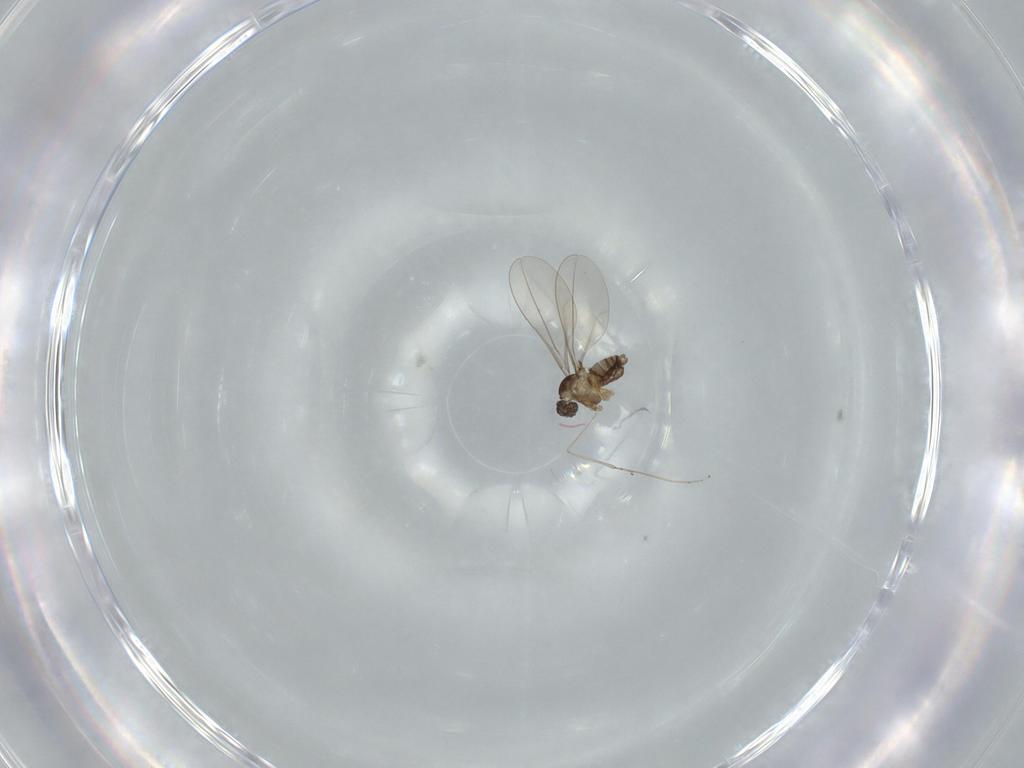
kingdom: Animalia
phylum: Arthropoda
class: Insecta
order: Diptera
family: Cecidomyiidae
